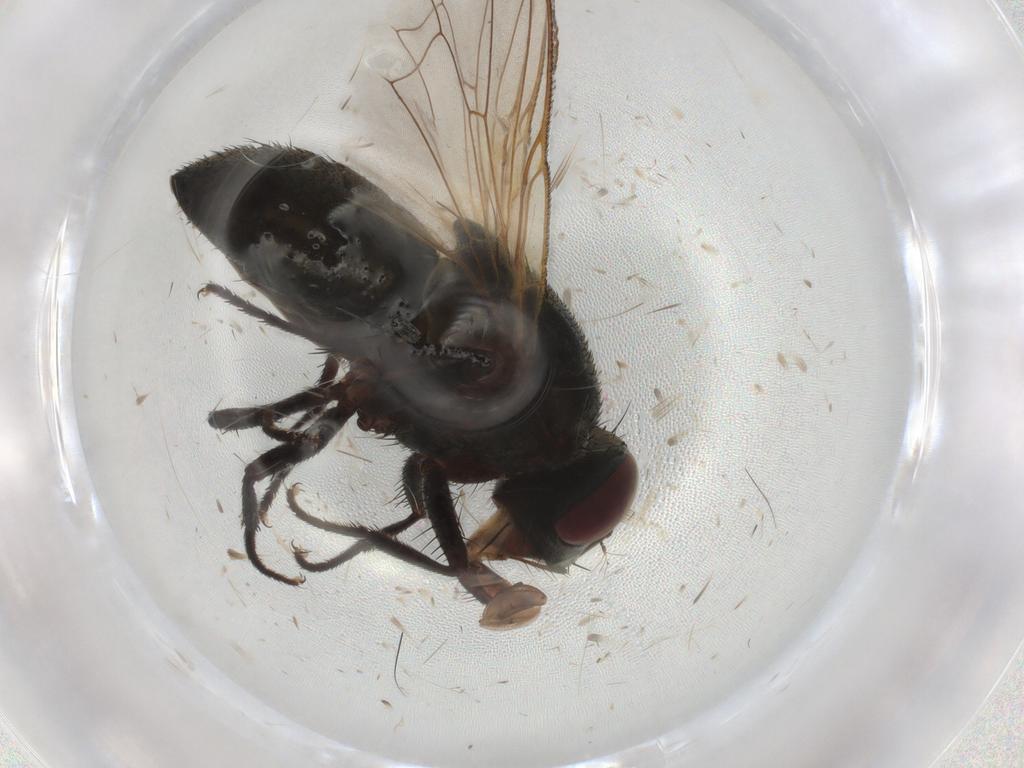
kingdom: Animalia
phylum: Arthropoda
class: Insecta
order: Diptera
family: Muscidae
